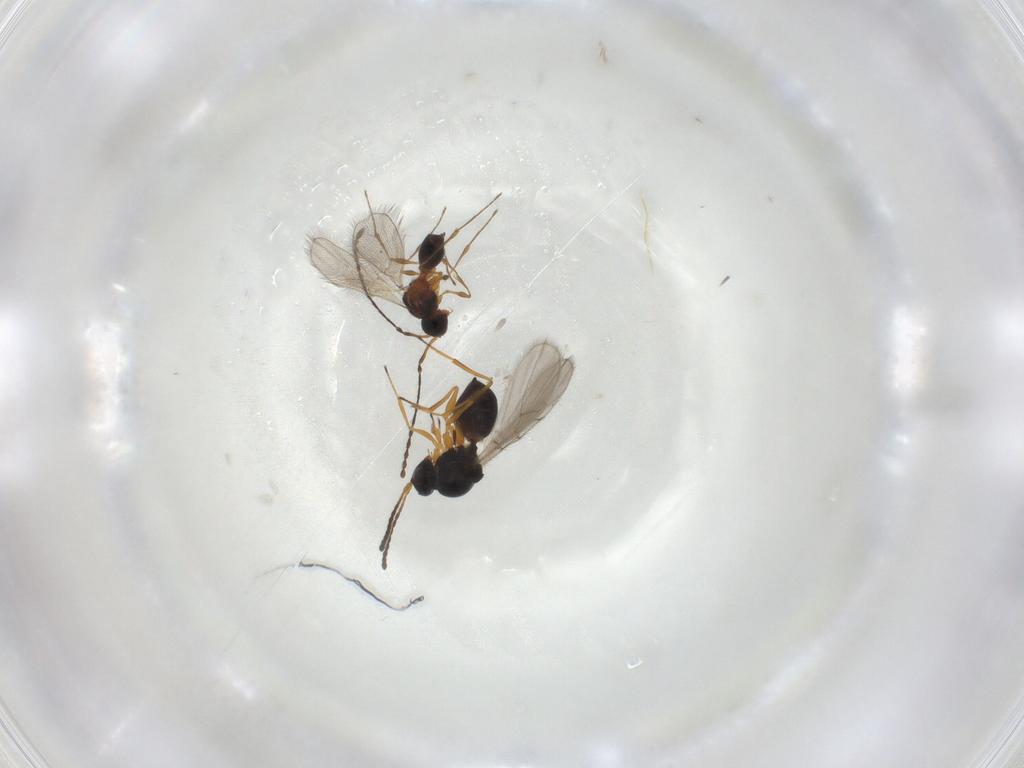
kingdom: Animalia
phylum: Arthropoda
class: Insecta
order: Hymenoptera
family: Diapriidae
